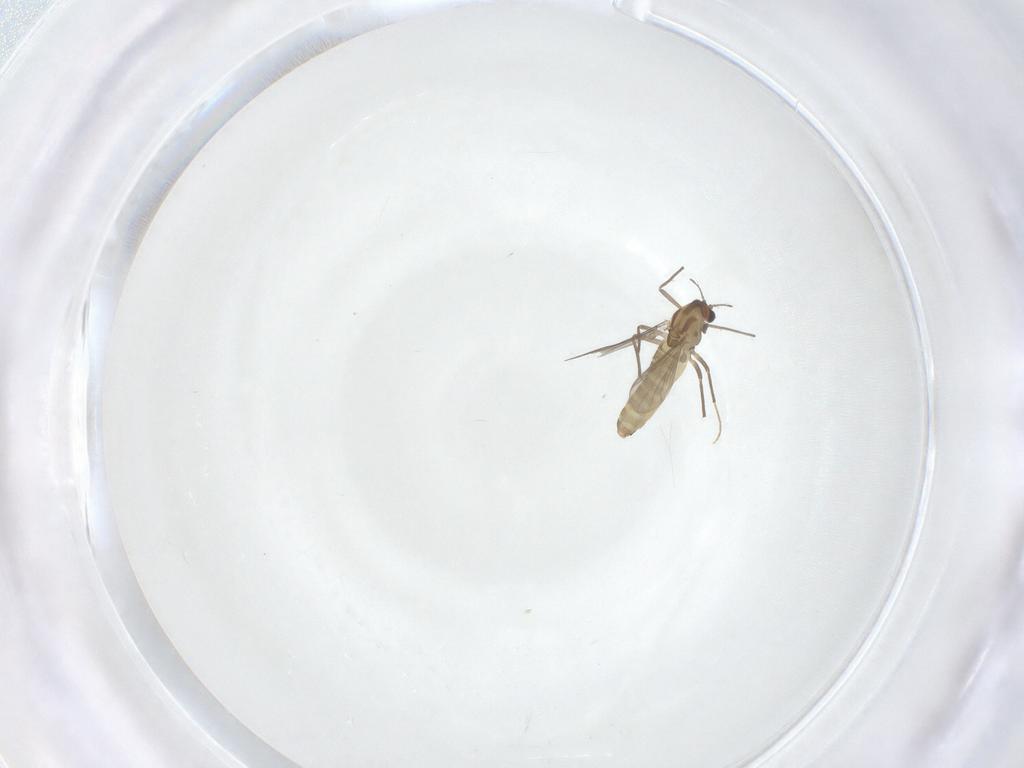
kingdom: Animalia
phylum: Arthropoda
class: Insecta
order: Diptera
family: Chironomidae
